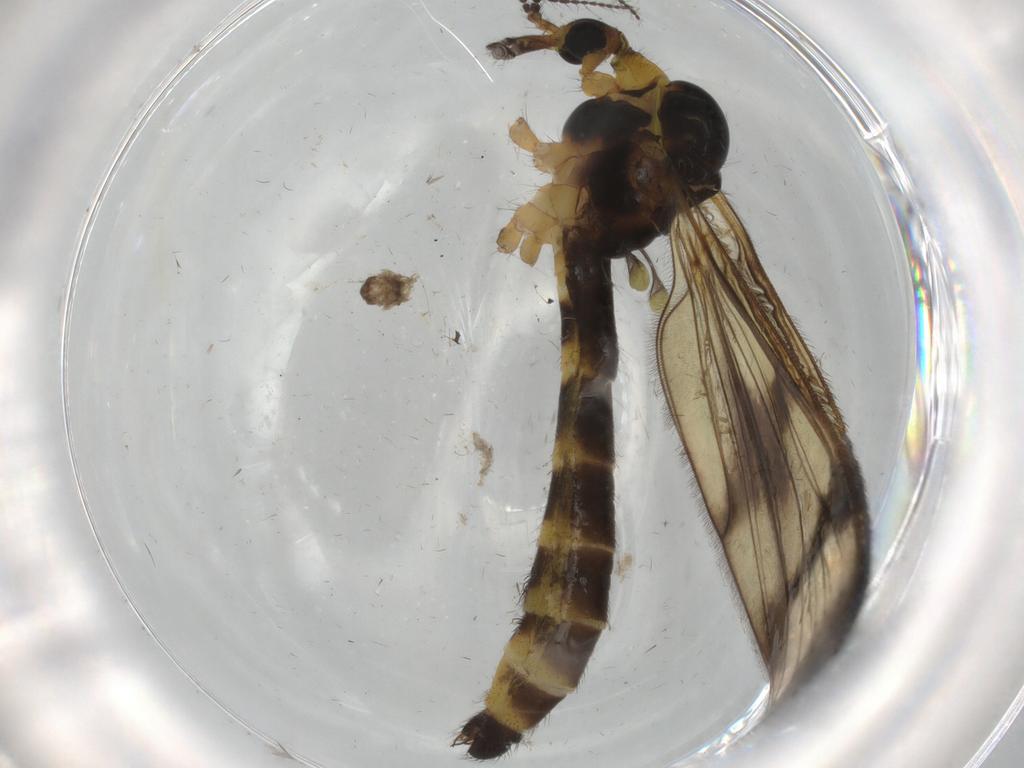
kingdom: Animalia
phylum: Arthropoda
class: Insecta
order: Diptera
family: Limoniidae
